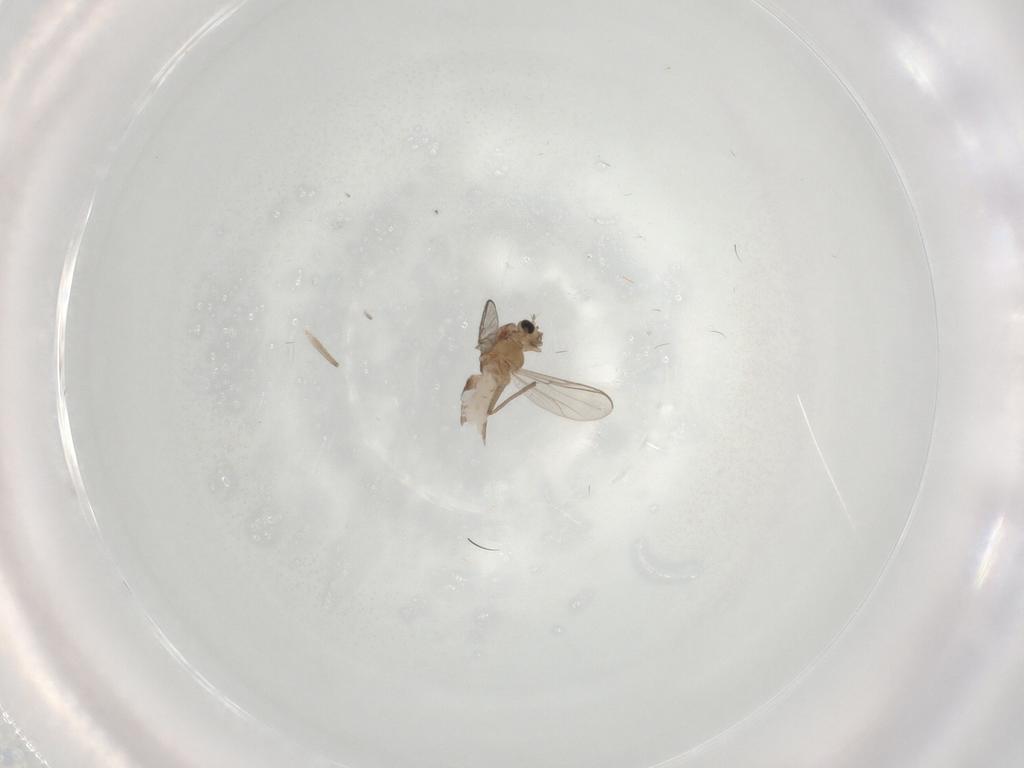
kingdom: Animalia
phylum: Arthropoda
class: Insecta
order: Diptera
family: Chironomidae
